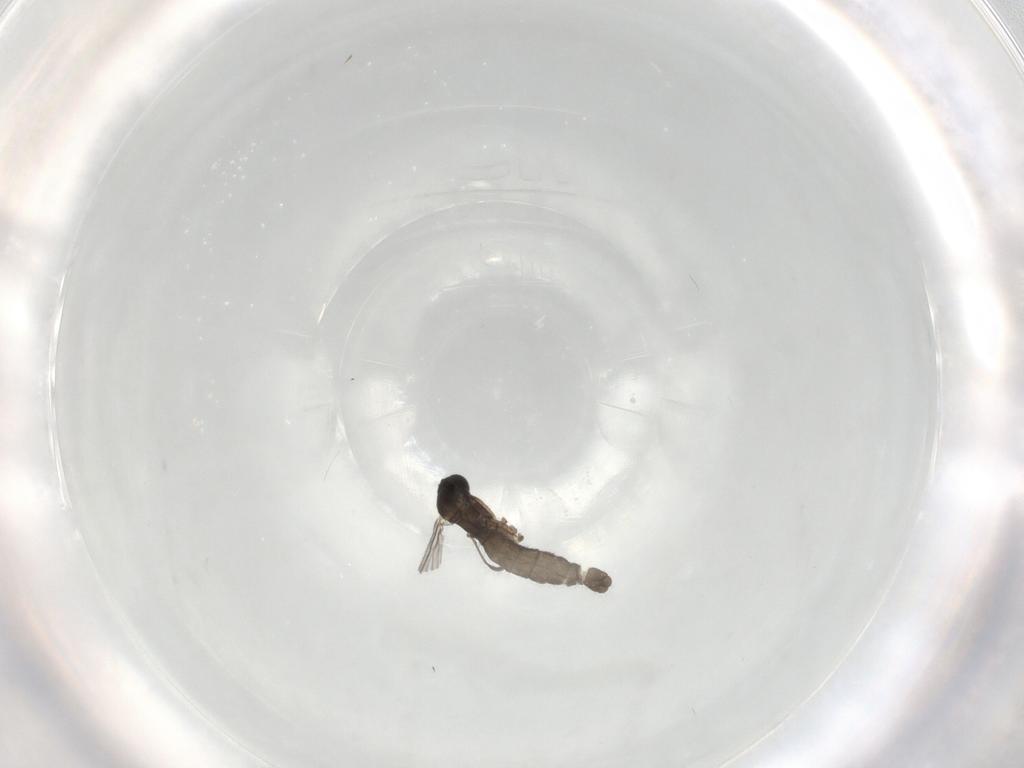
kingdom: Animalia
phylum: Arthropoda
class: Insecta
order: Diptera
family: Sciaridae
